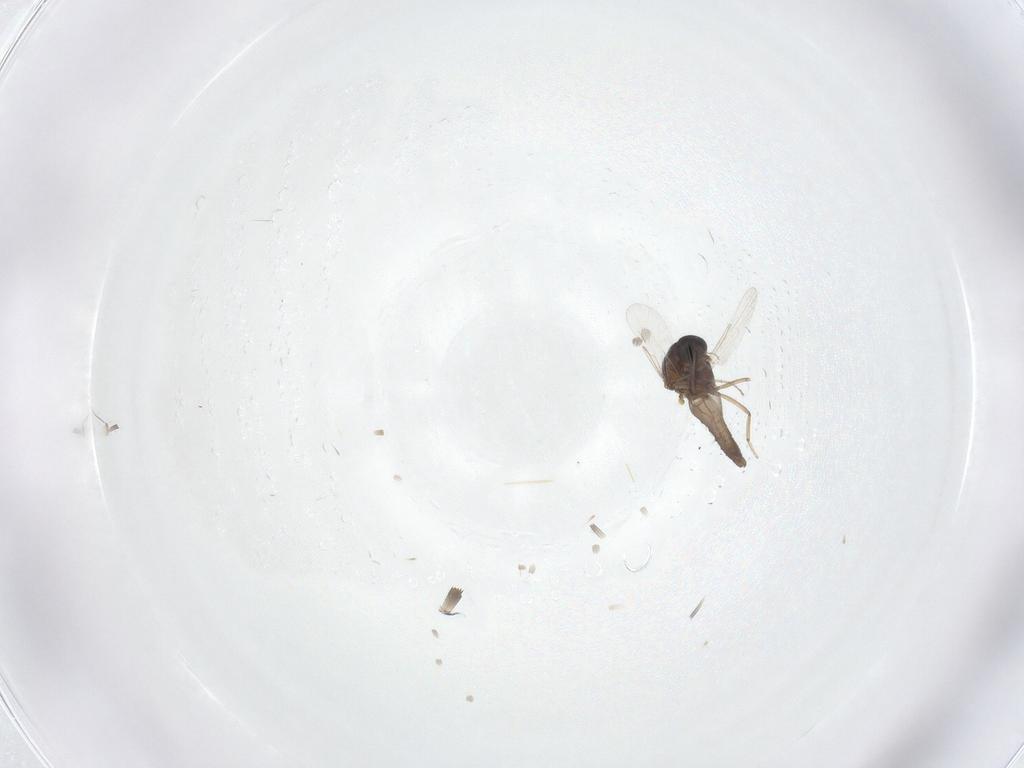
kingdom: Animalia
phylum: Arthropoda
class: Insecta
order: Diptera
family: Ceratopogonidae
